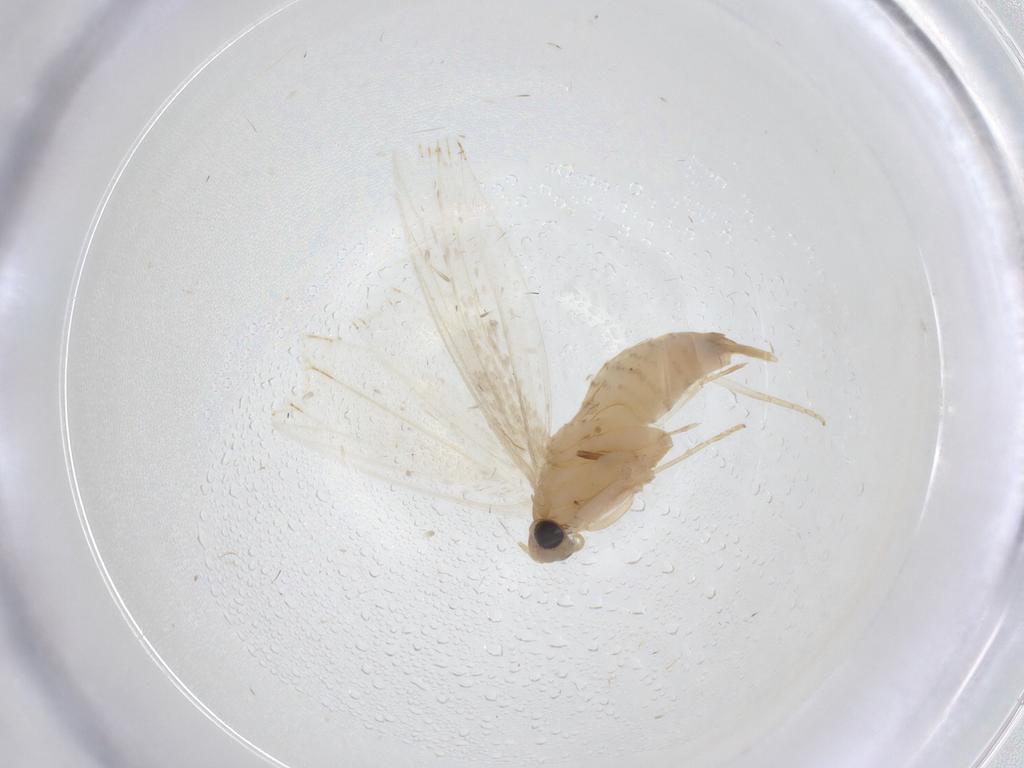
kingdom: Animalia
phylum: Arthropoda
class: Insecta
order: Lepidoptera
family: Tineidae
